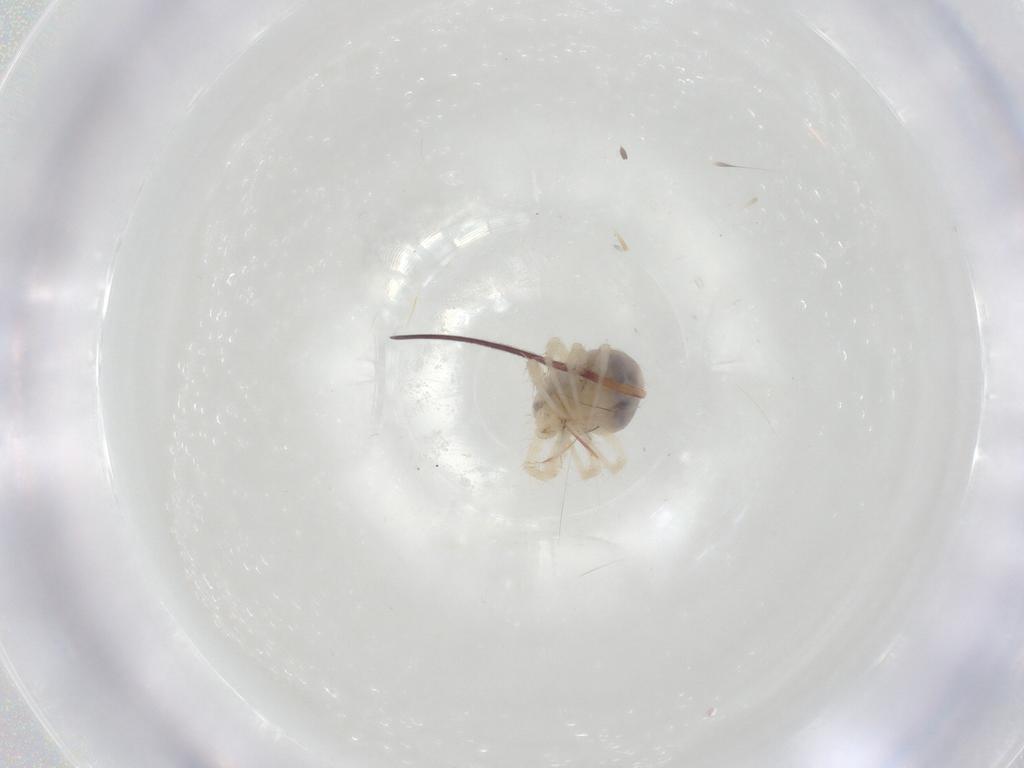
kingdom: Animalia
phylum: Arthropoda
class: Arachnida
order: Trombidiformes
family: Anystidae
